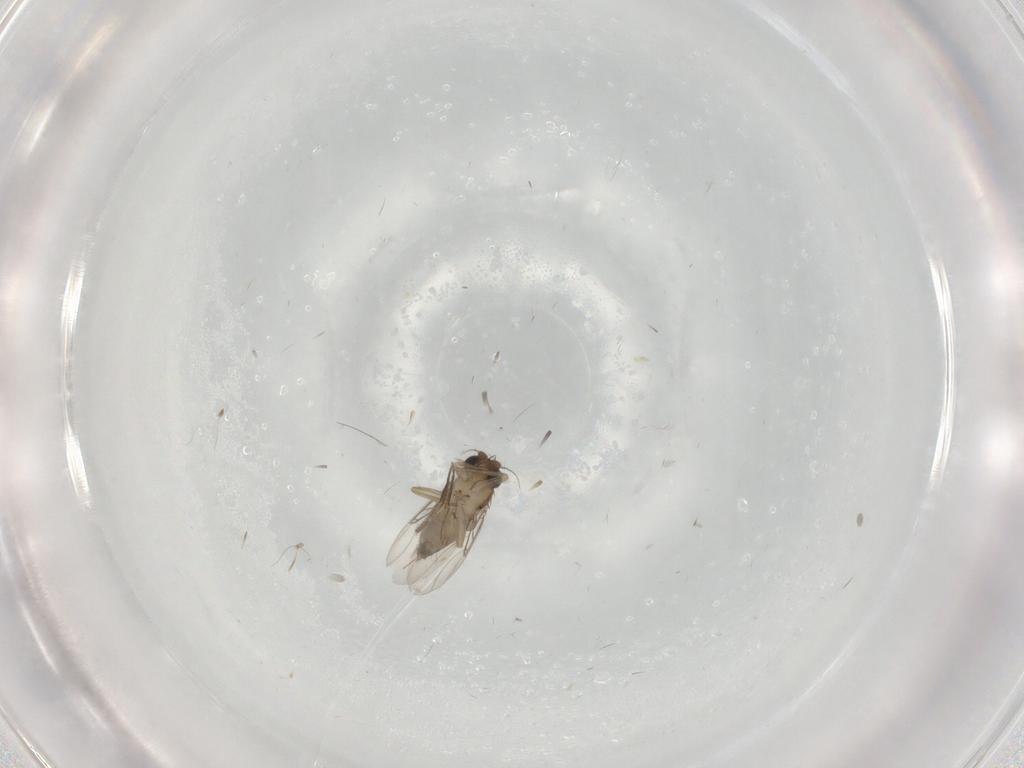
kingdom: Animalia
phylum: Arthropoda
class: Insecta
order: Diptera
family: Phoridae
